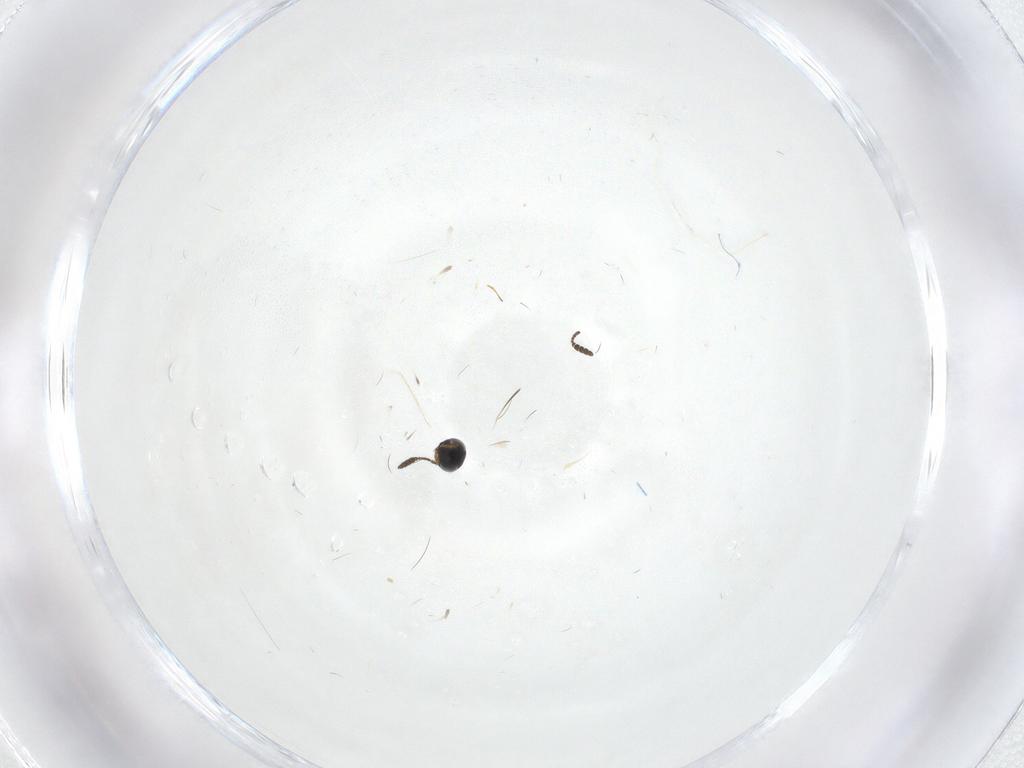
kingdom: Animalia
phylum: Arthropoda
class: Insecta
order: Hymenoptera
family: Scelionidae
